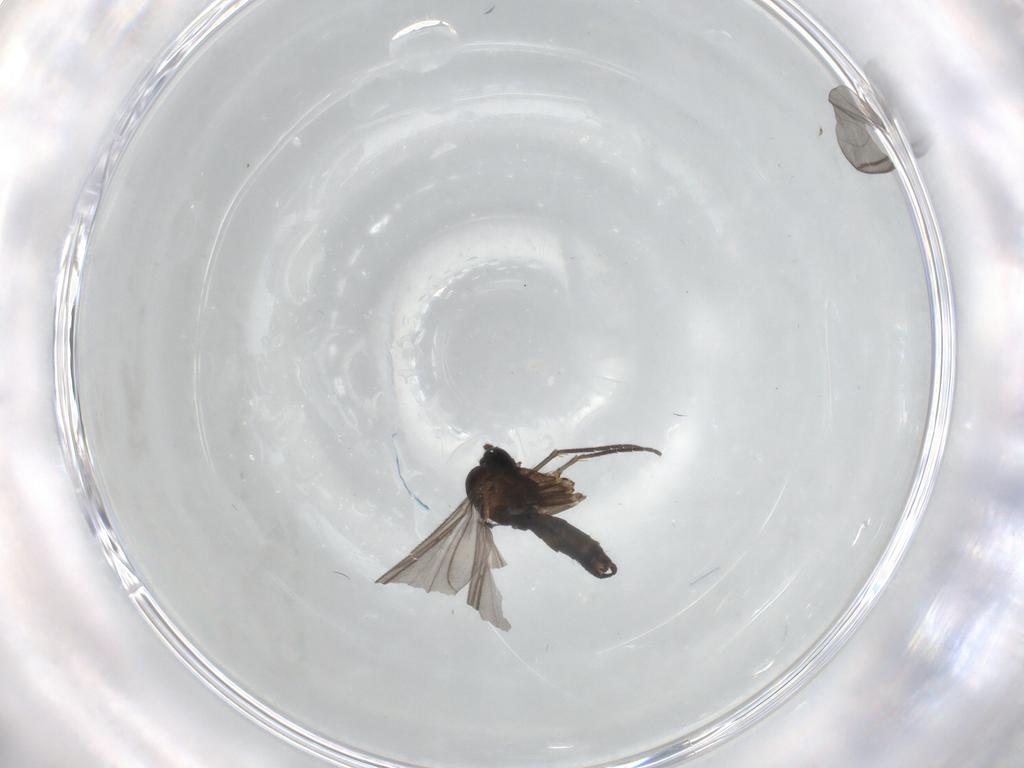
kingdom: Animalia
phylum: Arthropoda
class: Insecta
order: Diptera
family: Sciaridae
